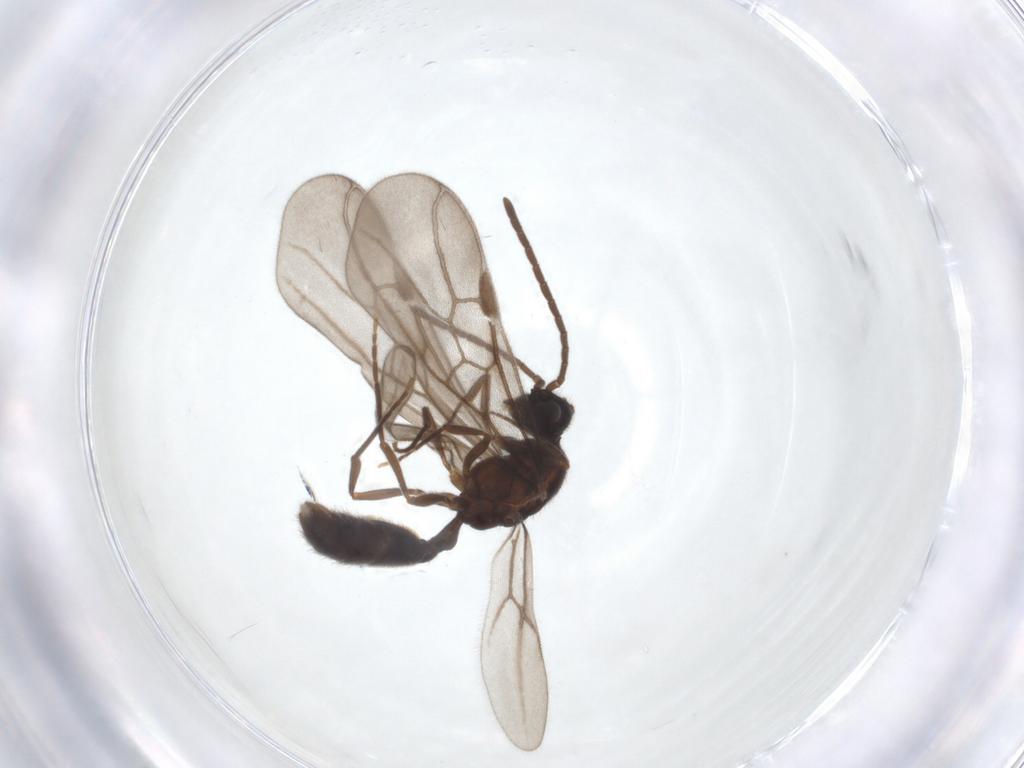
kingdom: Animalia
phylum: Arthropoda
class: Insecta
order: Hymenoptera
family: Formicidae
